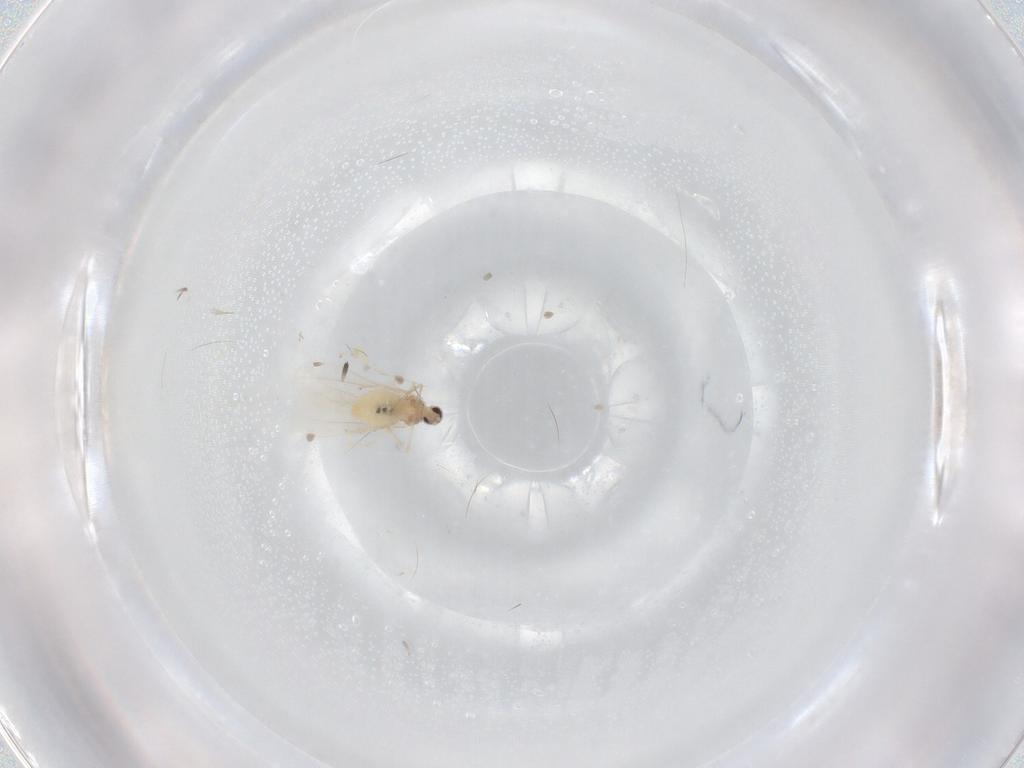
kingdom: Animalia
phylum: Arthropoda
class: Insecta
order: Diptera
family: Cecidomyiidae
